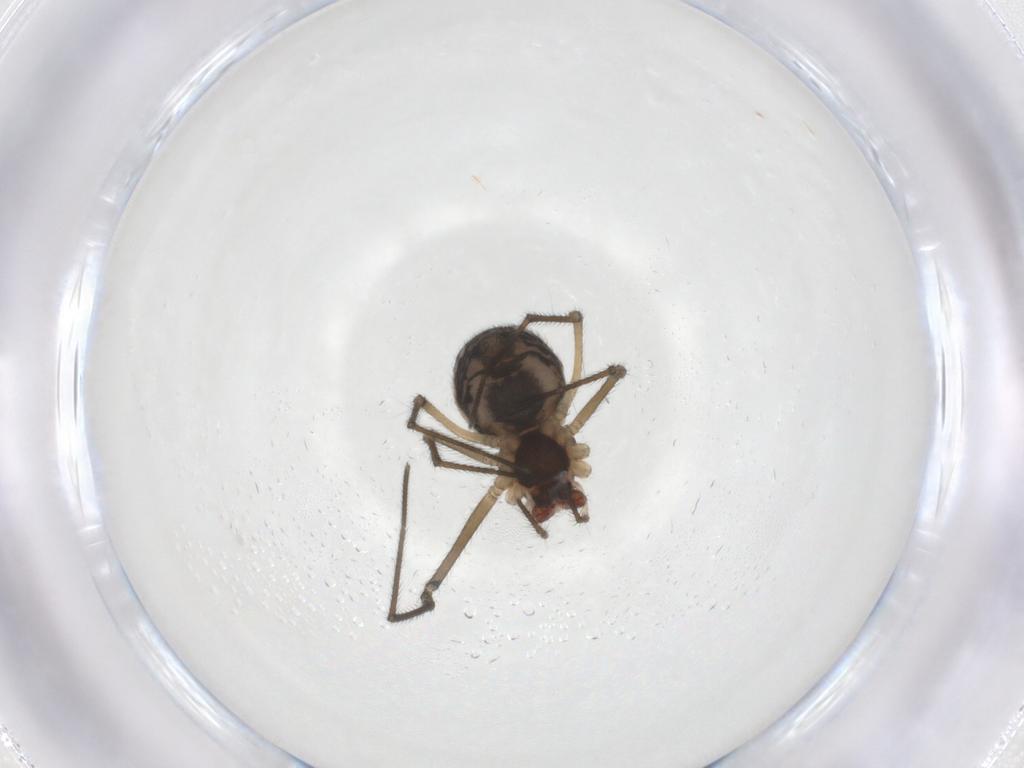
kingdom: Animalia
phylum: Arthropoda
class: Arachnida
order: Araneae
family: Tetragnathidae
